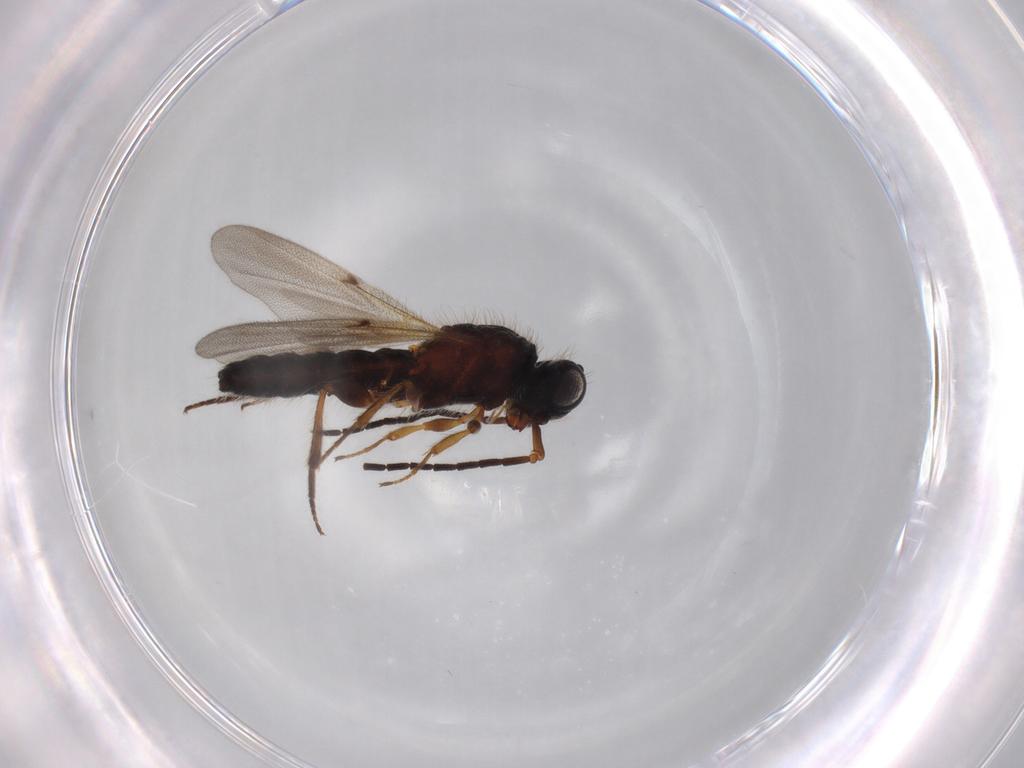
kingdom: Animalia
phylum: Arthropoda
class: Insecta
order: Hymenoptera
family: Scelionidae
